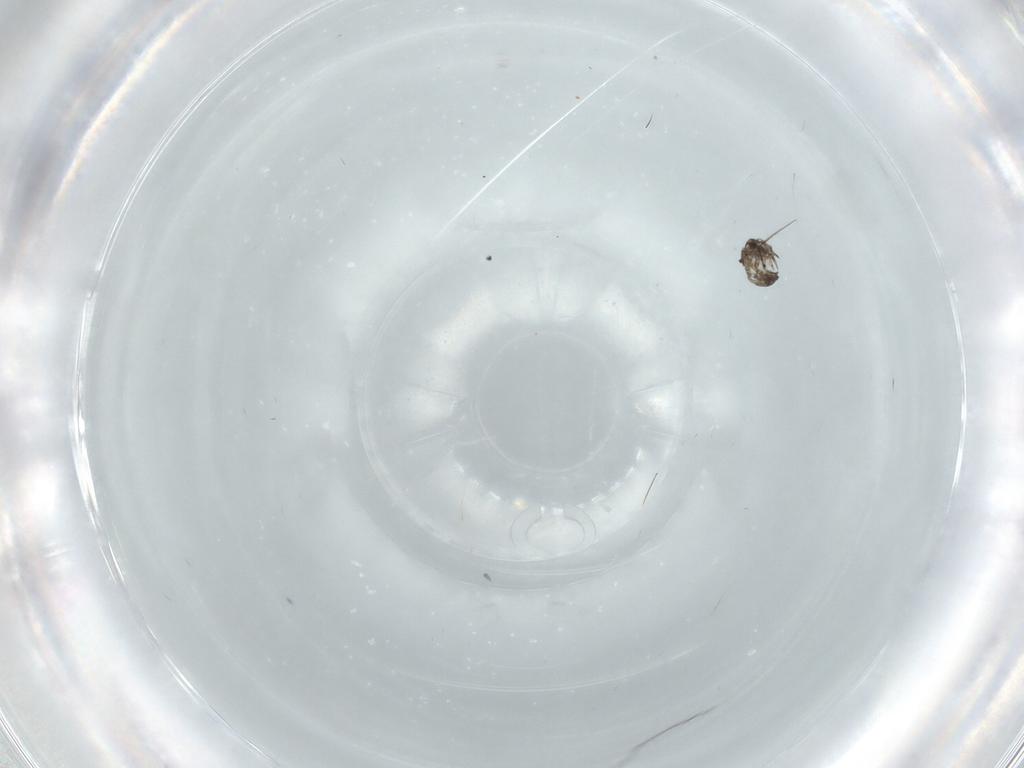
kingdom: Animalia
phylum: Arthropoda
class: Insecta
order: Diptera
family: Chironomidae
